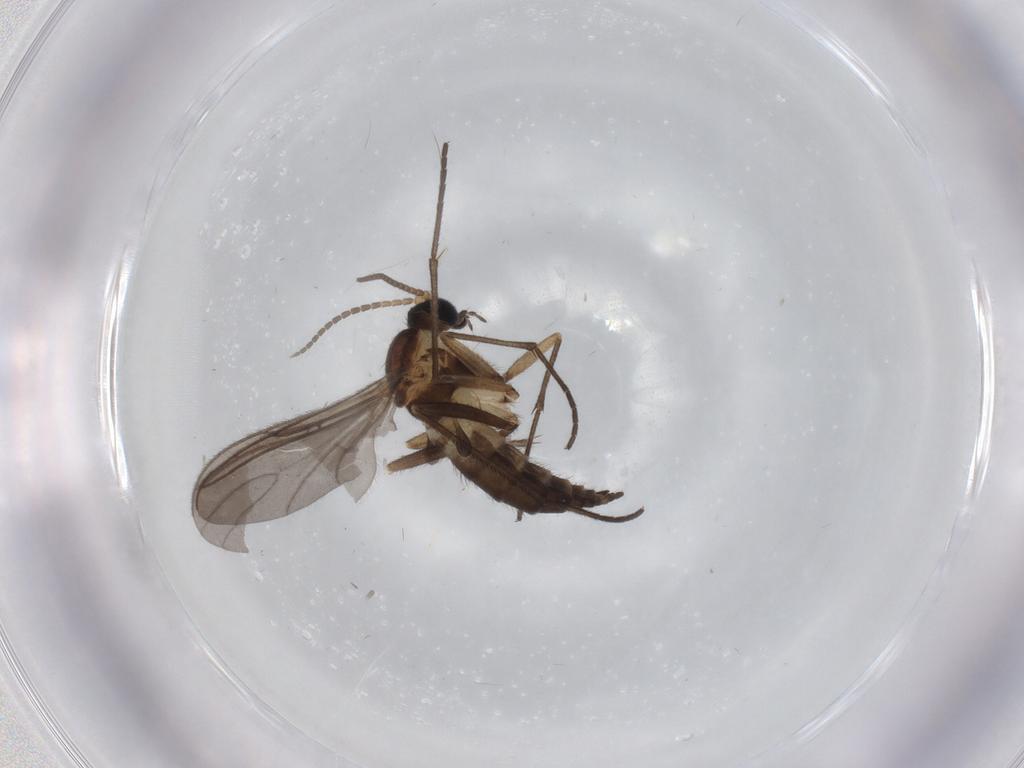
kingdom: Animalia
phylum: Arthropoda
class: Insecta
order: Diptera
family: Sciaridae
